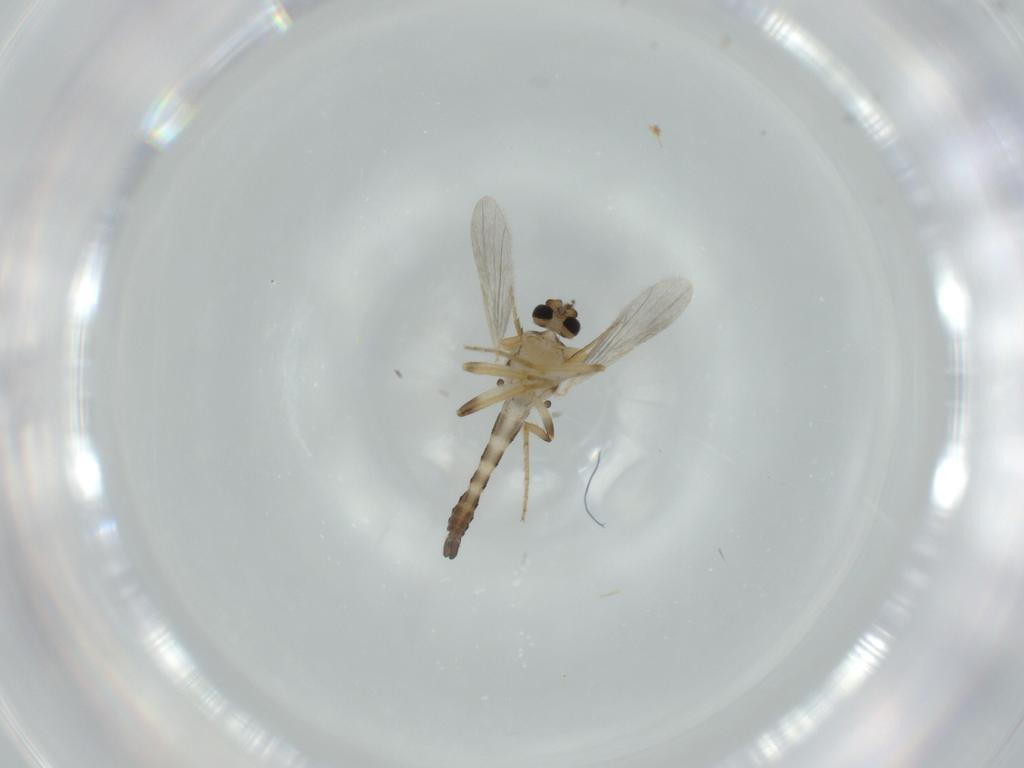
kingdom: Animalia
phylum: Arthropoda
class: Insecta
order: Diptera
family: Ceratopogonidae
